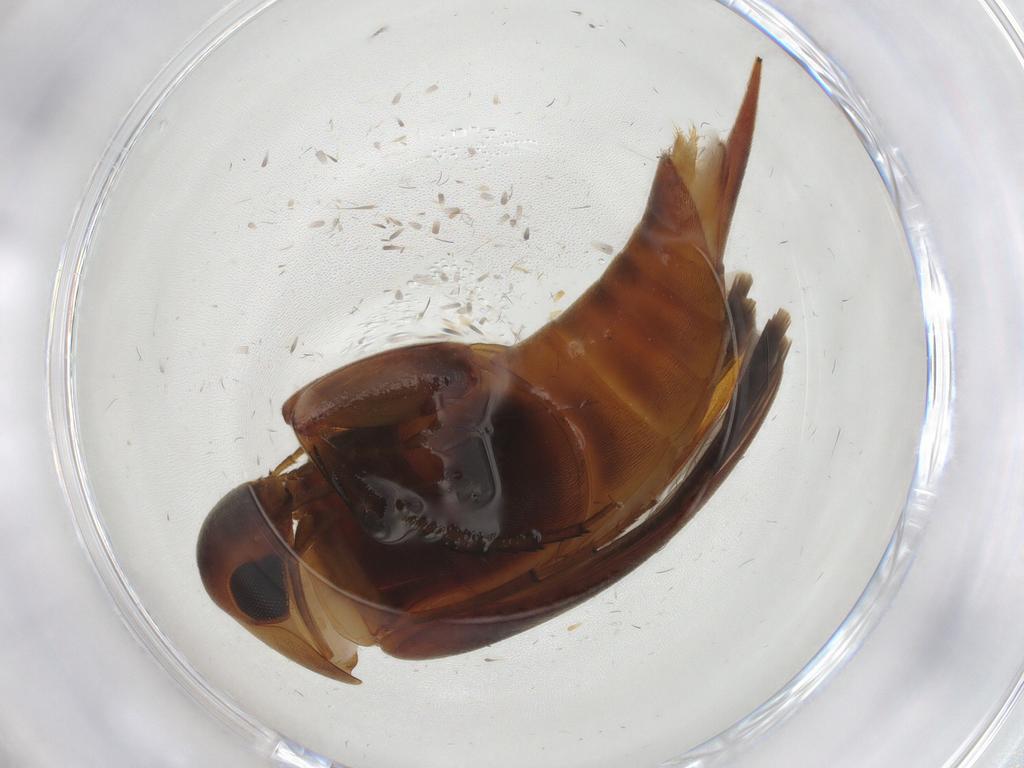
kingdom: Animalia
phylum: Arthropoda
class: Insecta
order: Coleoptera
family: Mordellidae
